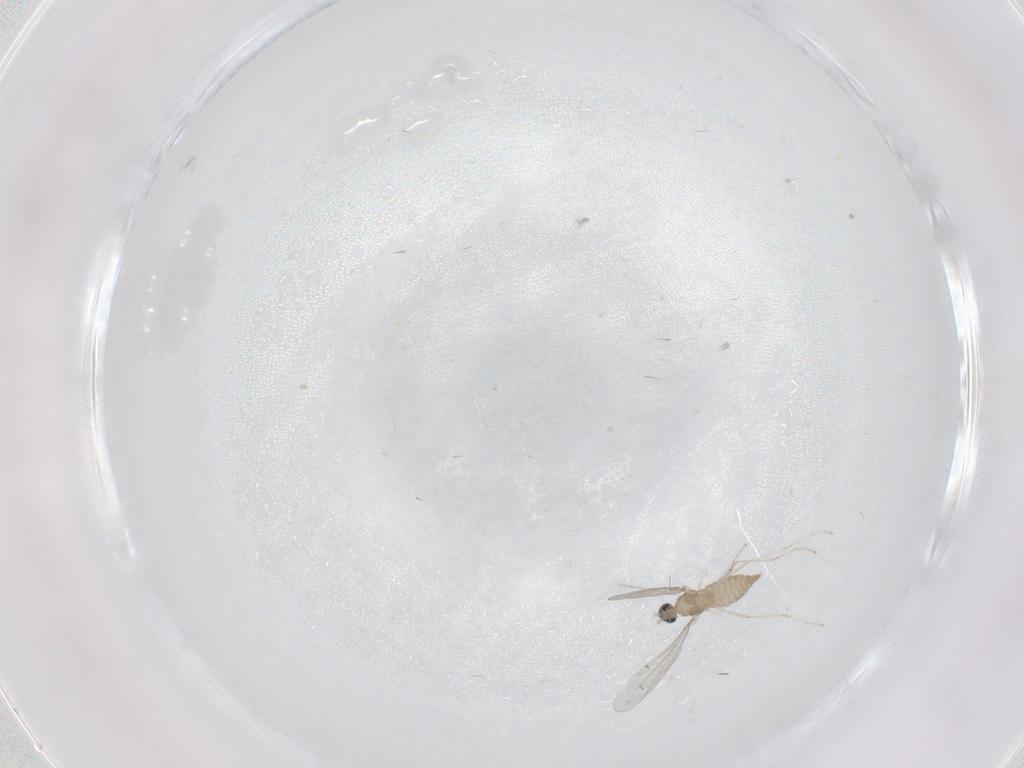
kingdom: Animalia
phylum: Arthropoda
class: Insecta
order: Diptera
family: Cecidomyiidae
